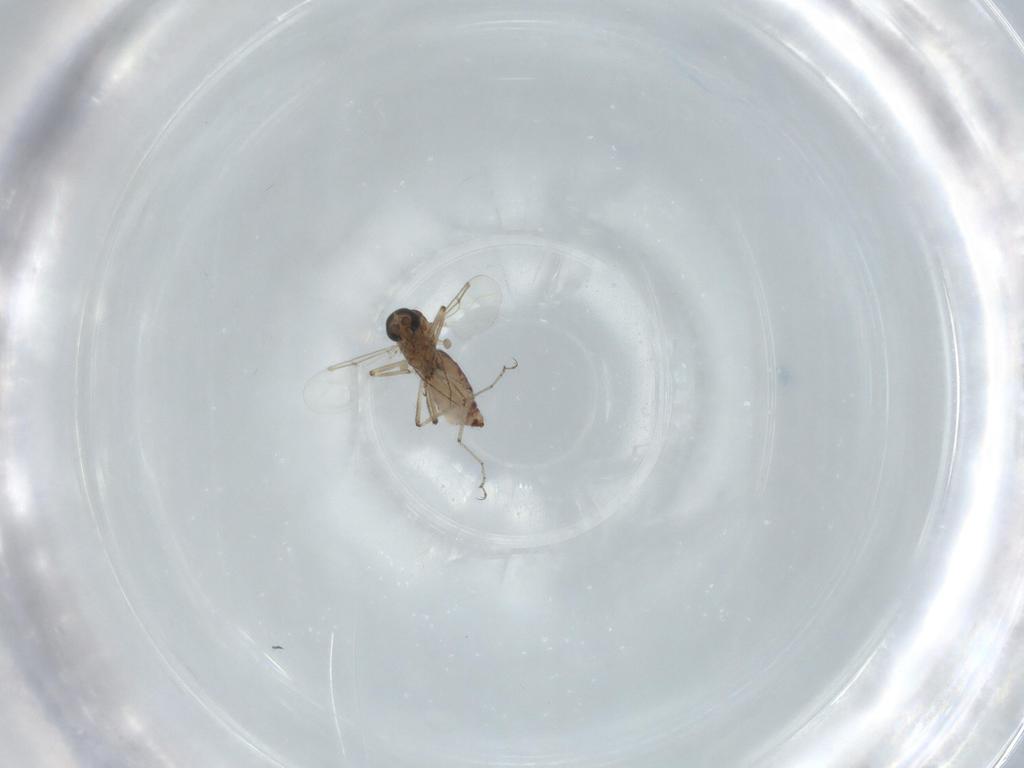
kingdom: Animalia
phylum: Arthropoda
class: Insecta
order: Diptera
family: Ceratopogonidae
